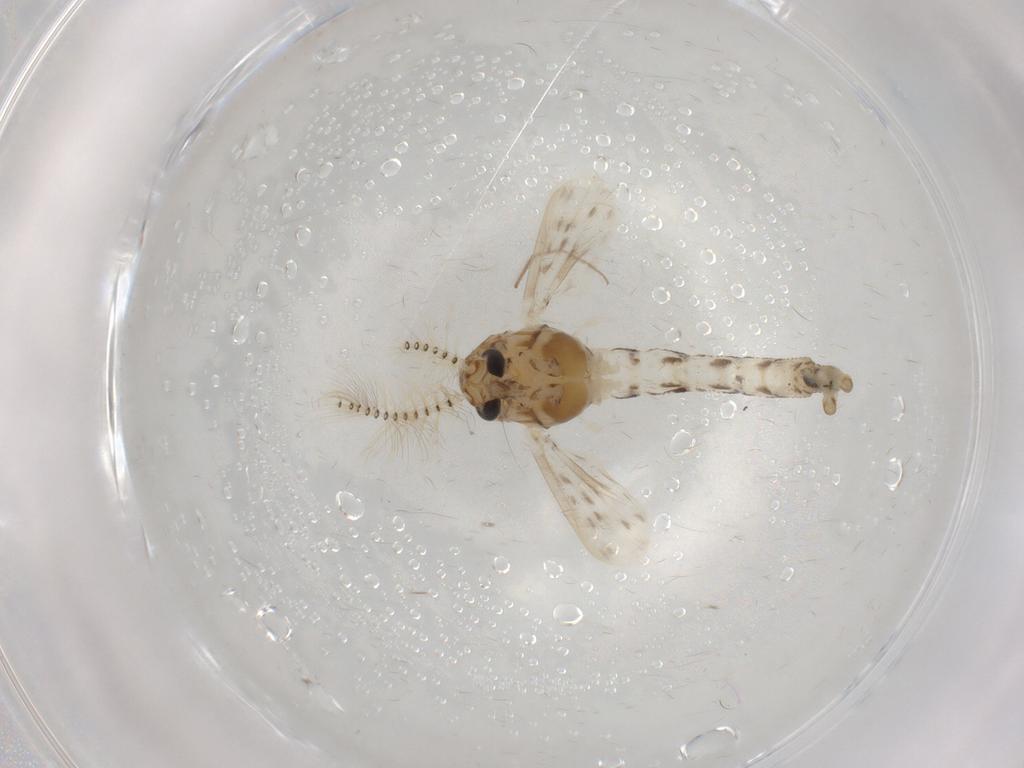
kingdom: Animalia
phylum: Arthropoda
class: Insecta
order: Diptera
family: Chaoboridae
